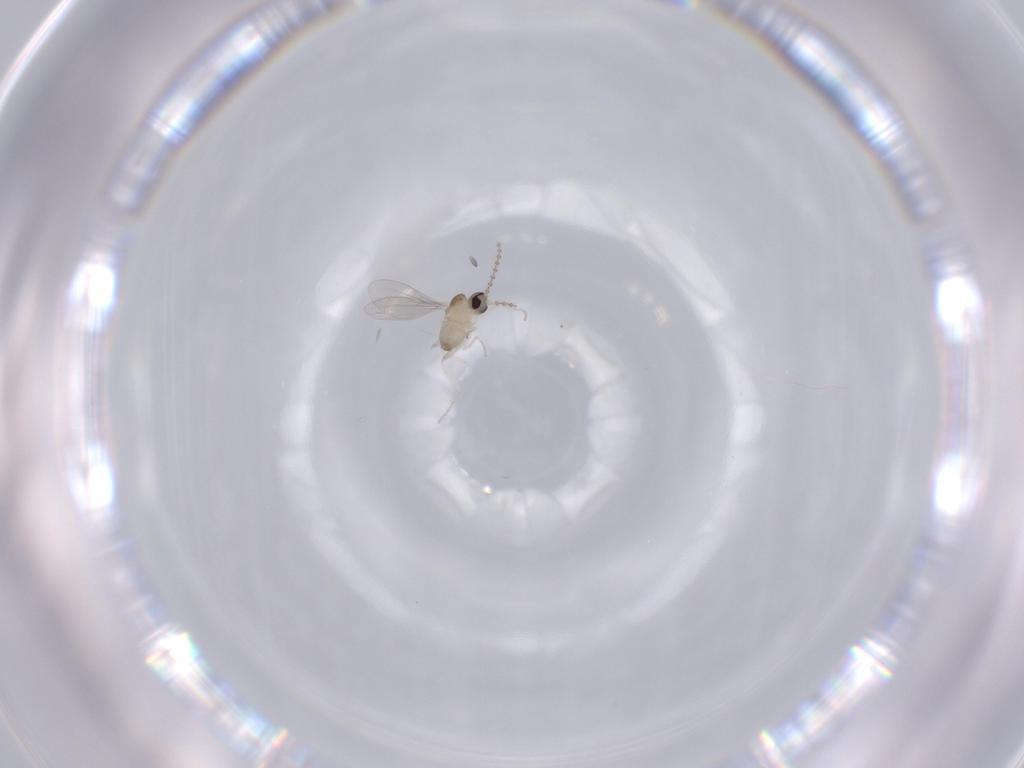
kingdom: Animalia
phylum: Arthropoda
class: Insecta
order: Diptera
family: Cecidomyiidae
